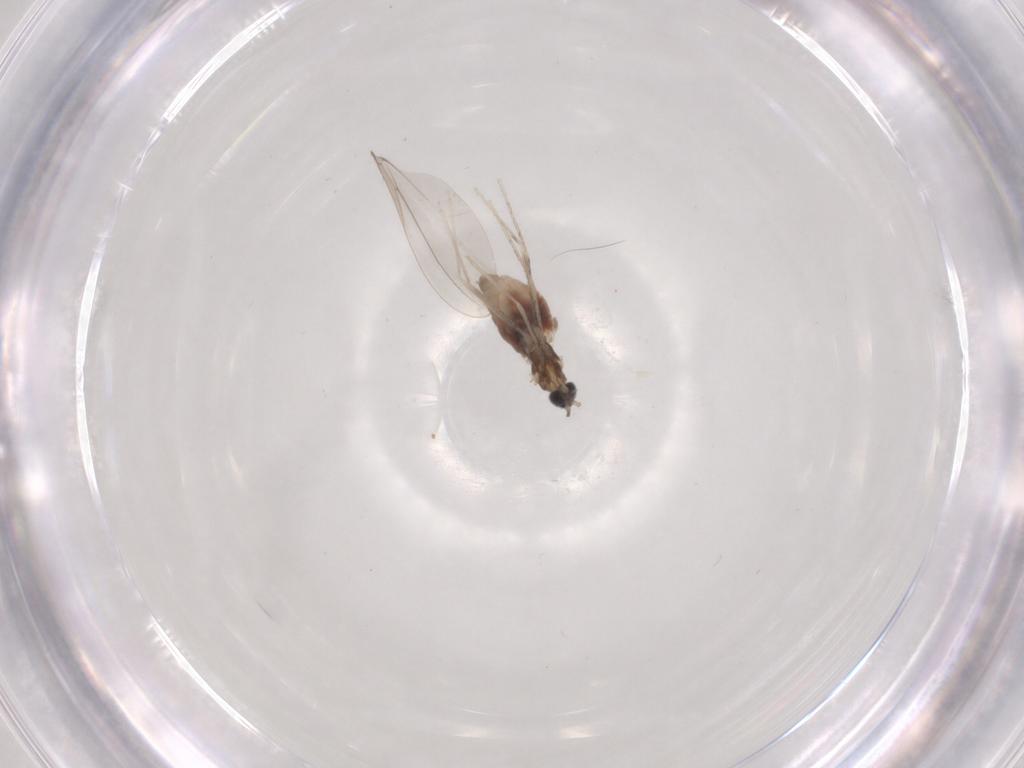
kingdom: Animalia
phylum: Arthropoda
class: Insecta
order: Diptera
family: Cecidomyiidae
